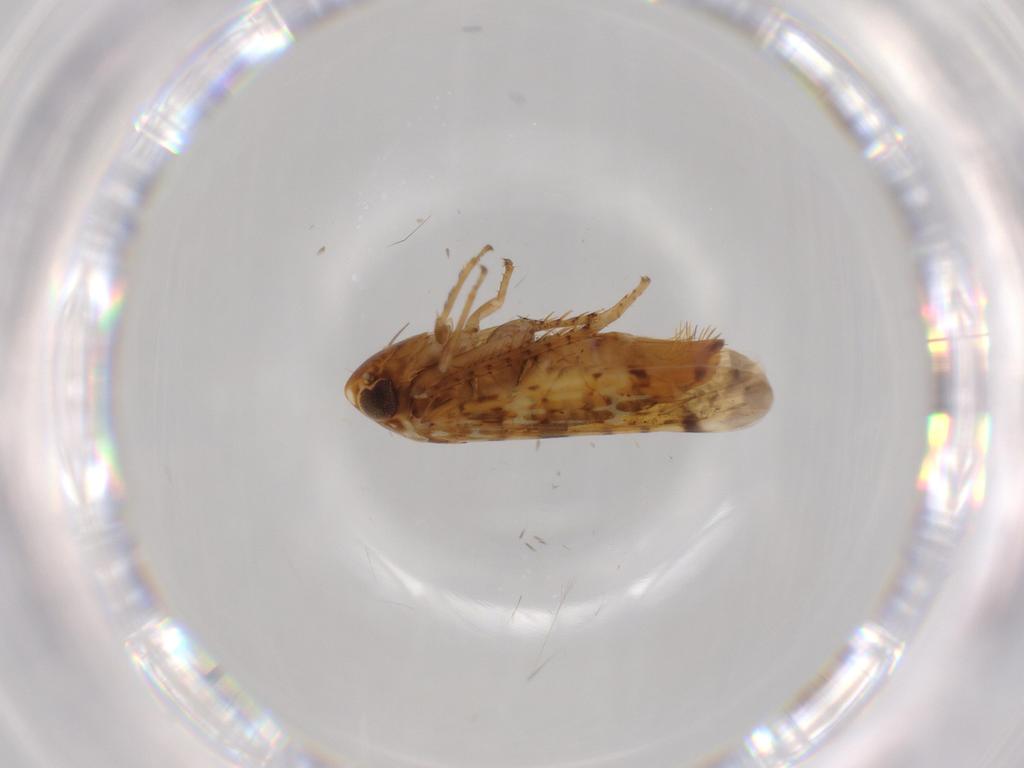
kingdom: Animalia
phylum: Arthropoda
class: Insecta
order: Hemiptera
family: Cicadellidae
